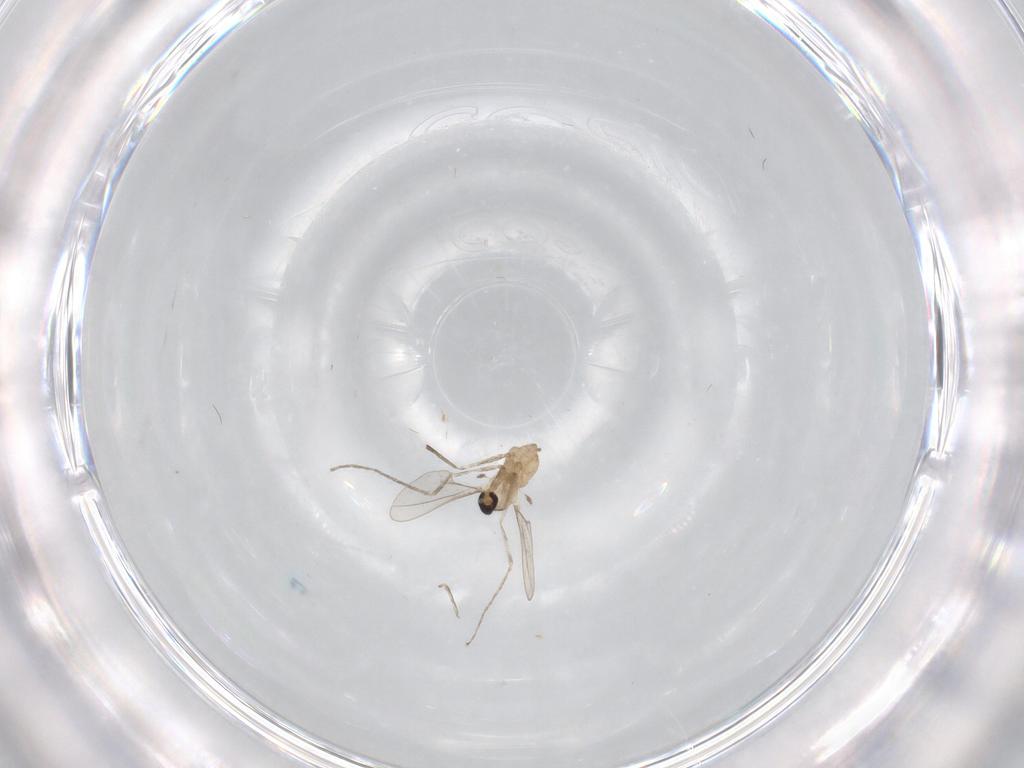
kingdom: Animalia
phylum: Arthropoda
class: Insecta
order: Diptera
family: Cecidomyiidae
